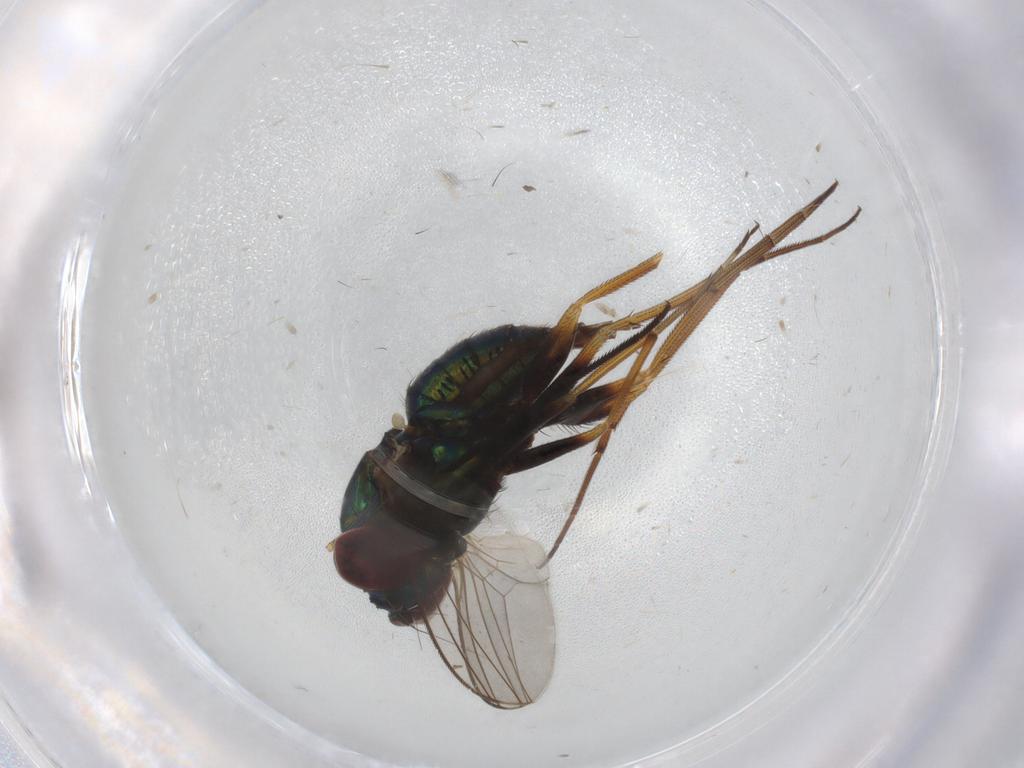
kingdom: Animalia
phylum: Arthropoda
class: Insecta
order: Diptera
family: Dolichopodidae
